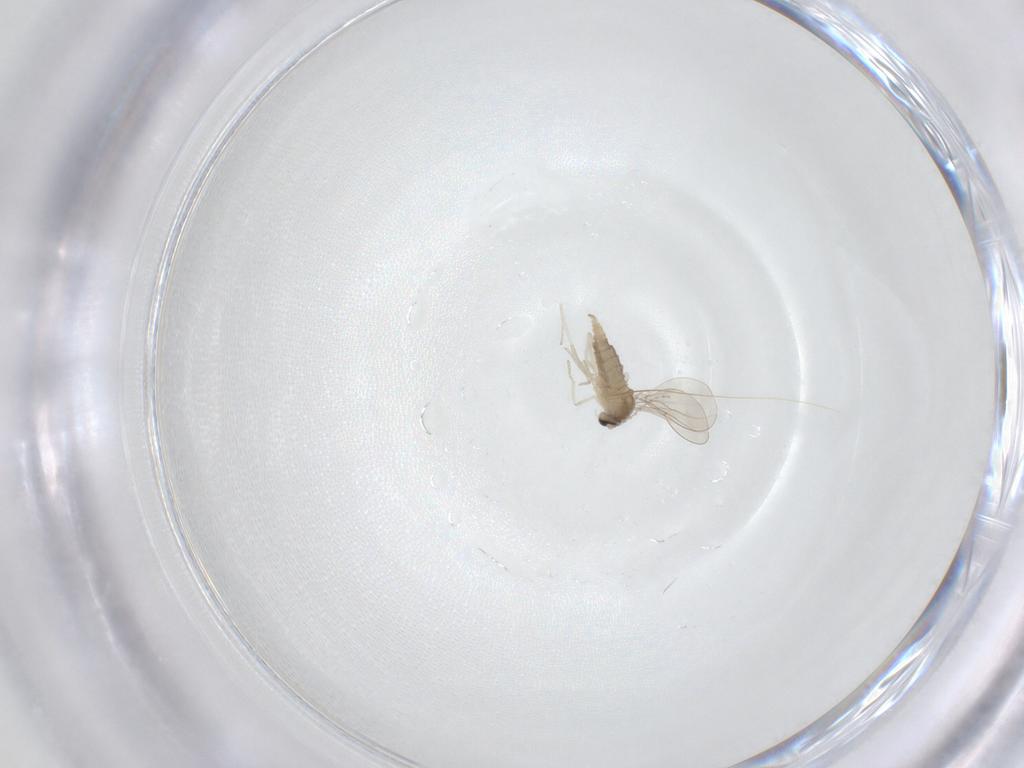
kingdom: Animalia
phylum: Arthropoda
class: Insecta
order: Diptera
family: Cecidomyiidae
